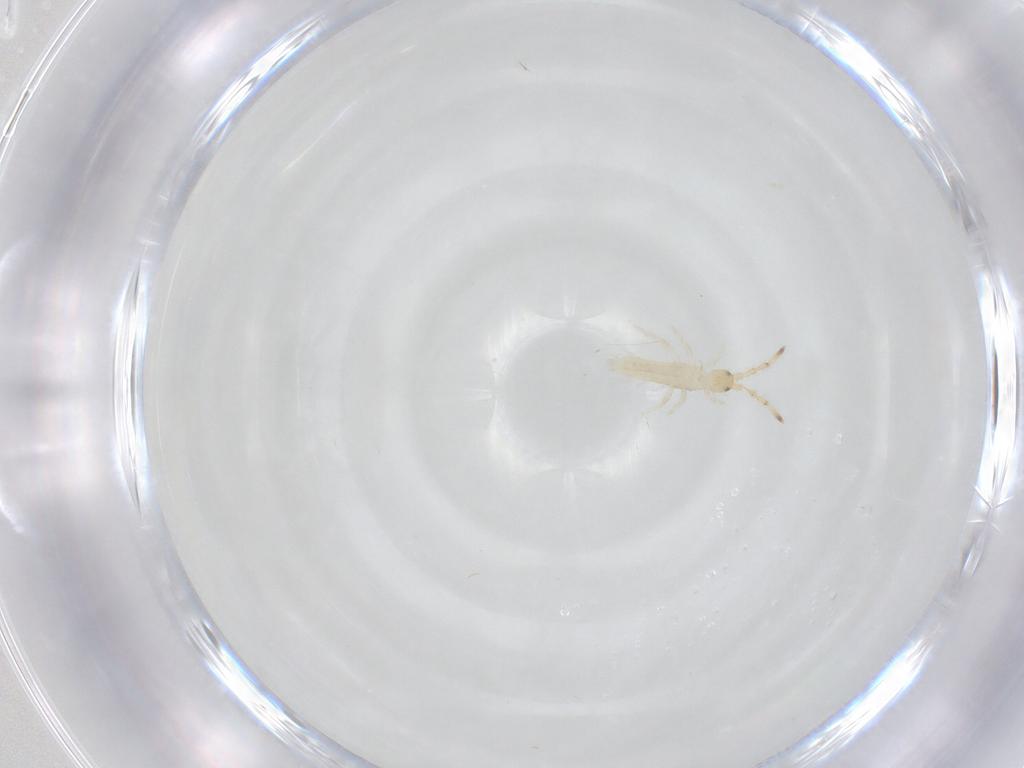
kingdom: Animalia
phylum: Arthropoda
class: Collembola
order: Entomobryomorpha
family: Entomobryidae
